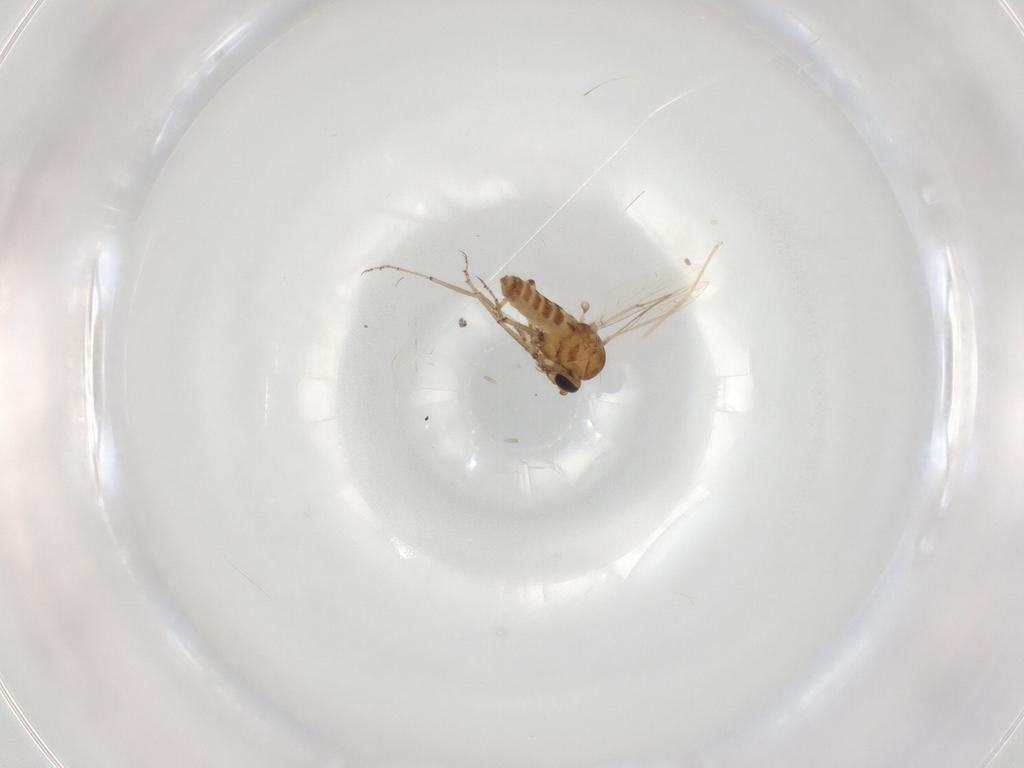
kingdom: Animalia
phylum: Arthropoda
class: Insecta
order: Diptera
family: Ceratopogonidae
